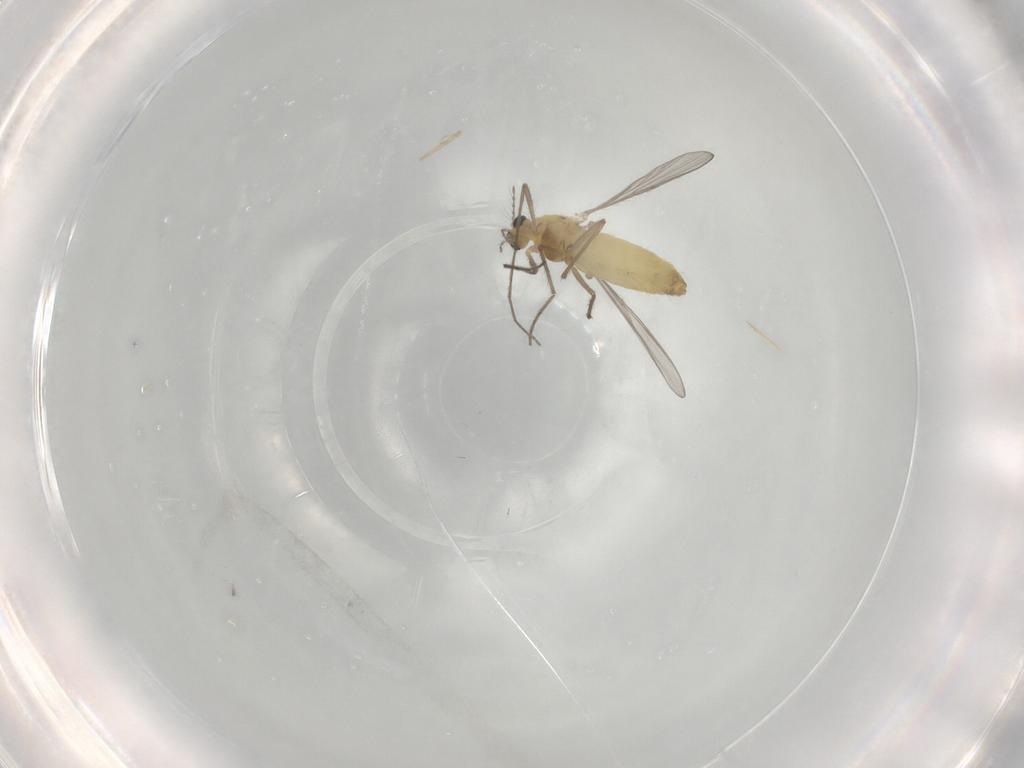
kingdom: Animalia
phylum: Arthropoda
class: Insecta
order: Diptera
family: Chironomidae
